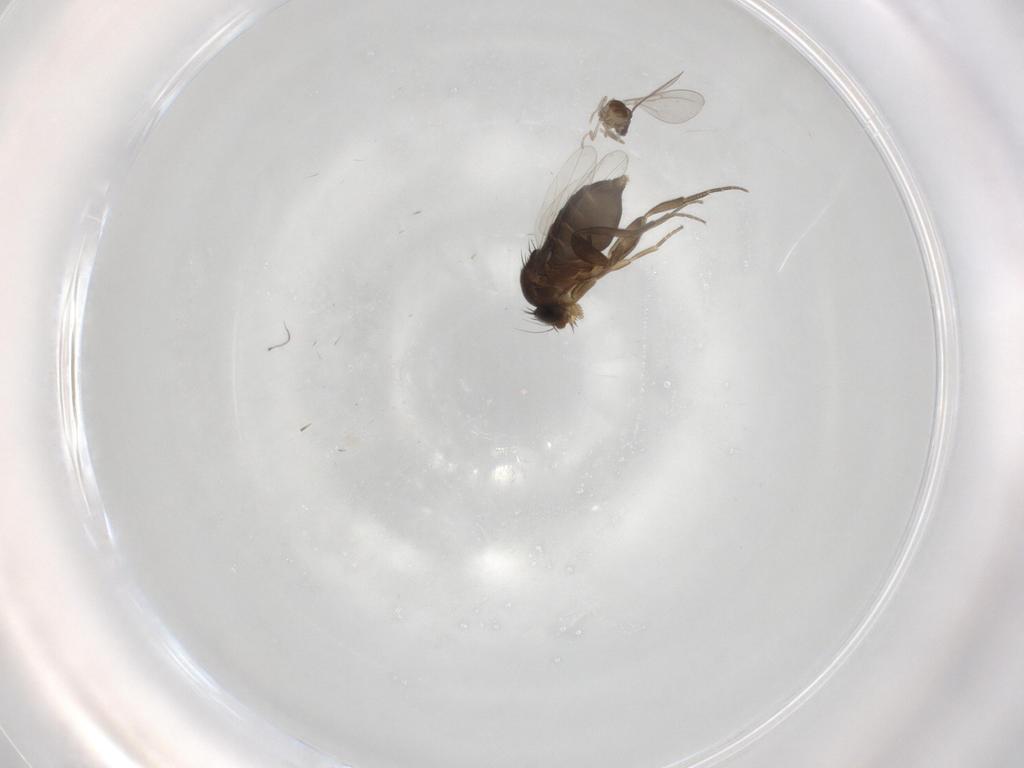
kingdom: Animalia
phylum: Arthropoda
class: Insecta
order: Diptera
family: Phoridae
